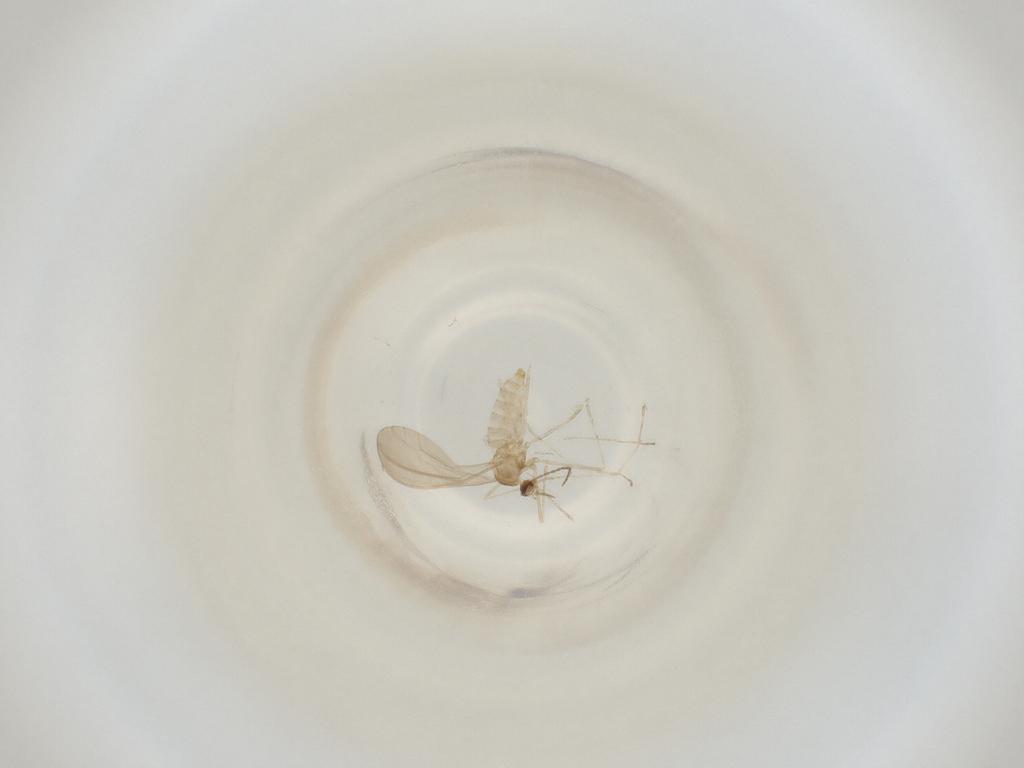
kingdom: Animalia
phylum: Arthropoda
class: Insecta
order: Diptera
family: Cecidomyiidae
